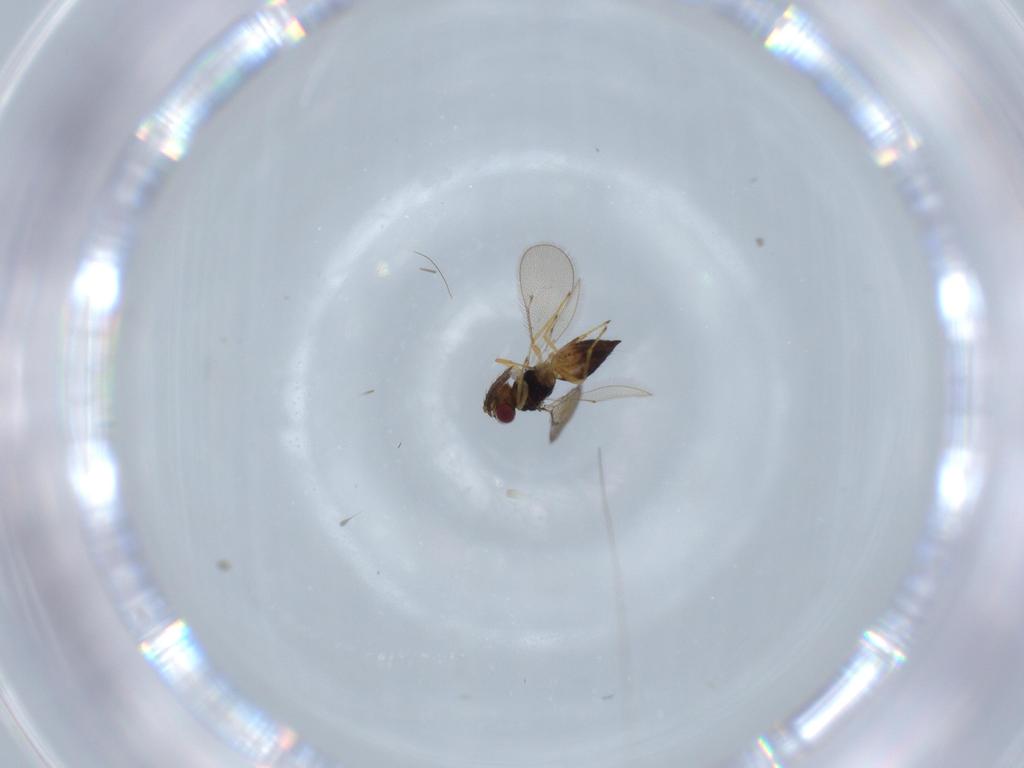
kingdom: Animalia
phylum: Arthropoda
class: Insecta
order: Hymenoptera
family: Eulophidae
